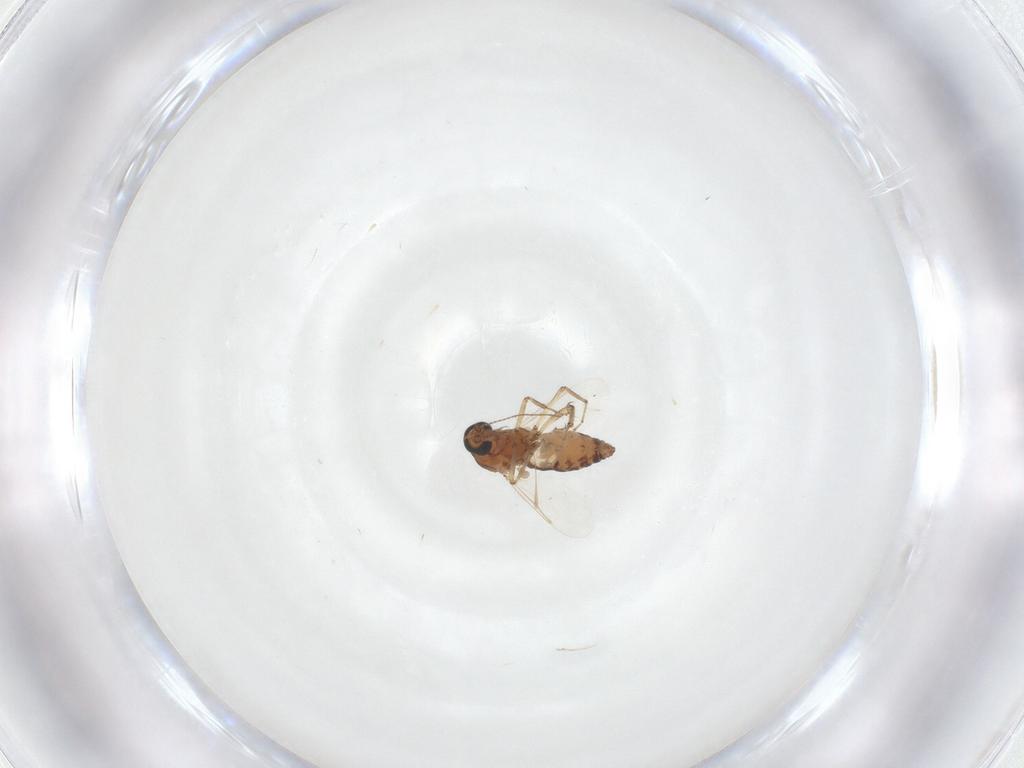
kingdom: Animalia
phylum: Arthropoda
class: Insecta
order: Diptera
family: Ceratopogonidae
